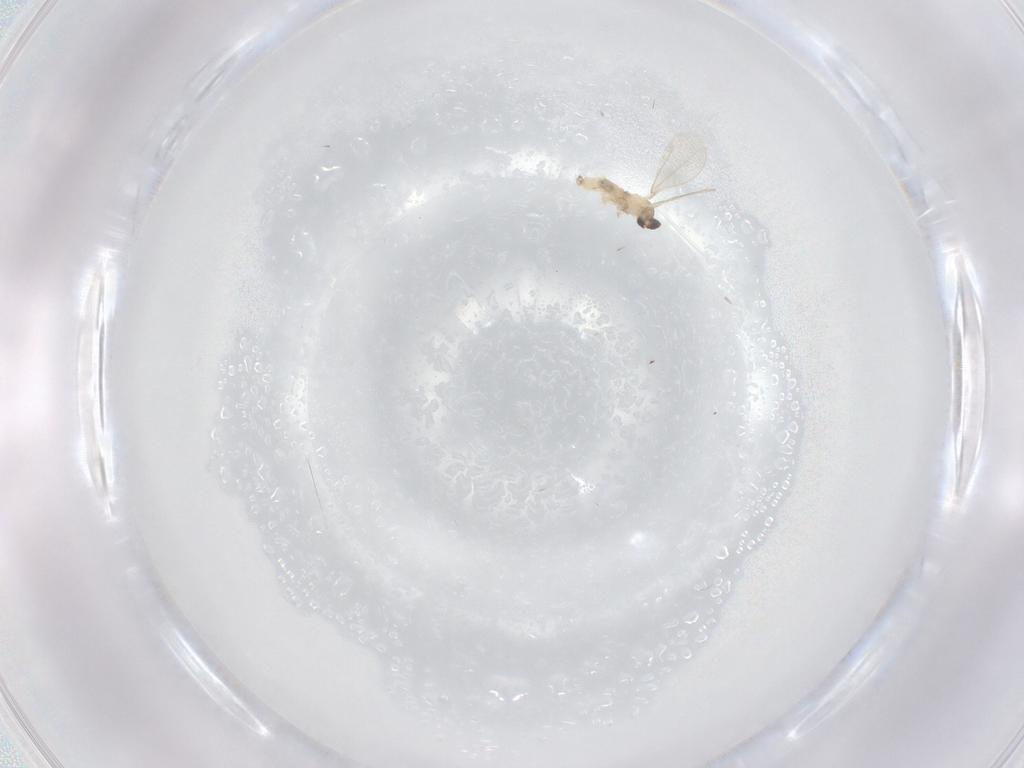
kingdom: Animalia
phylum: Arthropoda
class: Insecta
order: Diptera
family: Cecidomyiidae
